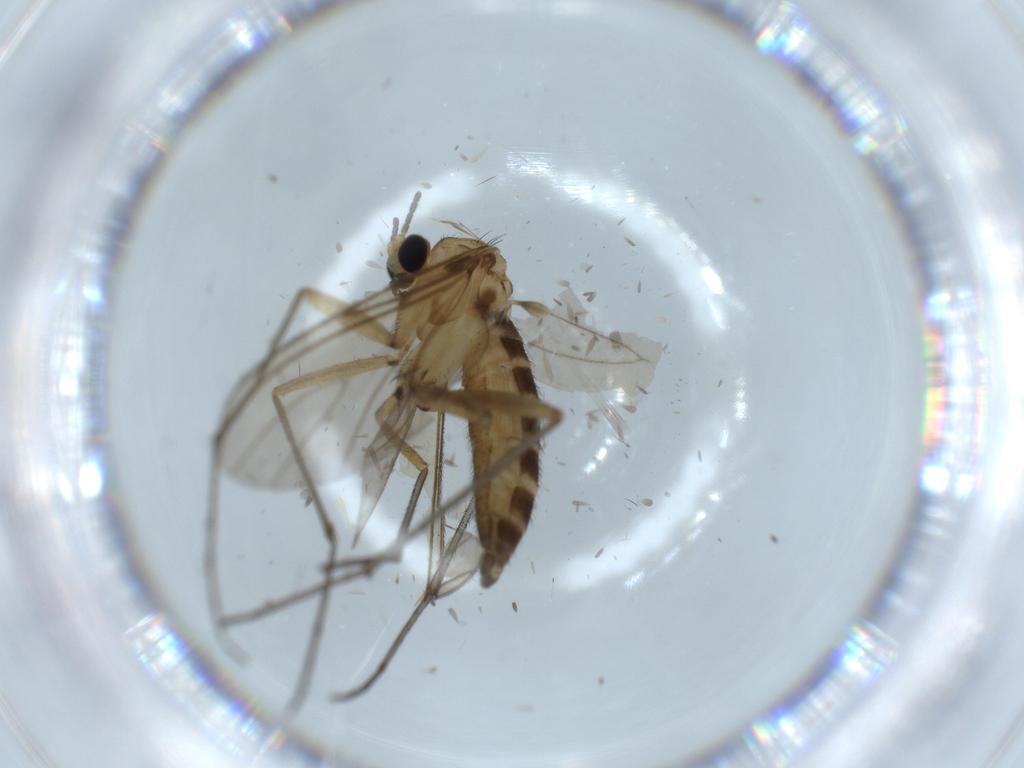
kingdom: Animalia
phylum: Arthropoda
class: Insecta
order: Diptera
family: Sciaridae
